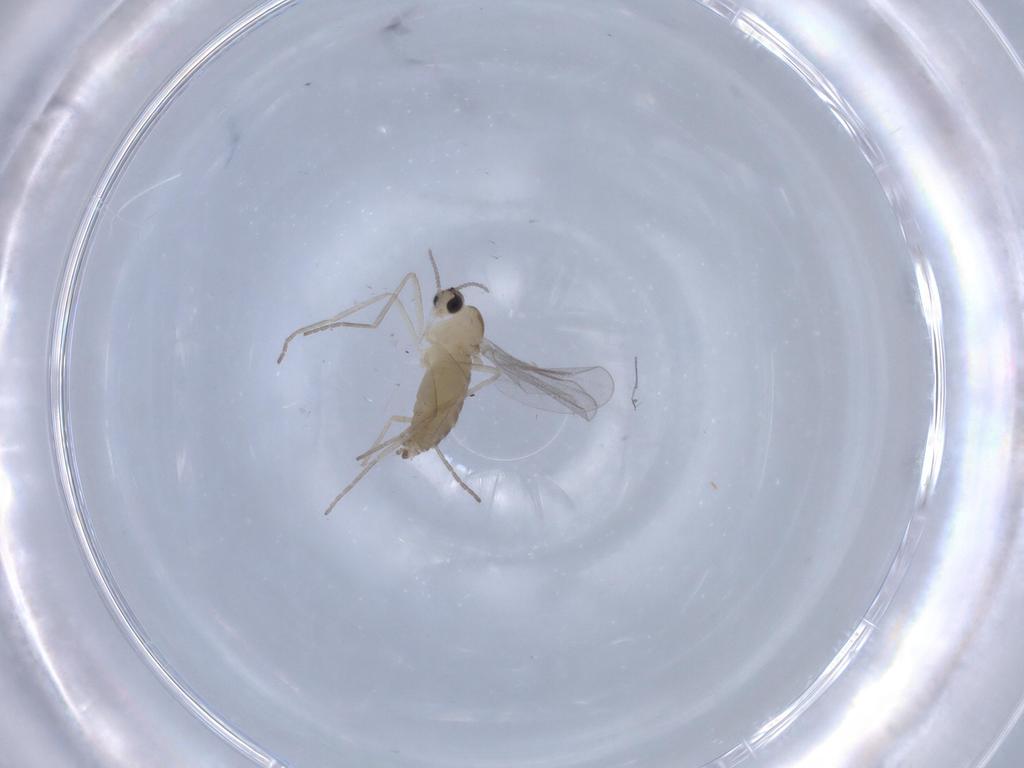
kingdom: Animalia
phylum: Arthropoda
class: Insecta
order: Diptera
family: Cecidomyiidae
